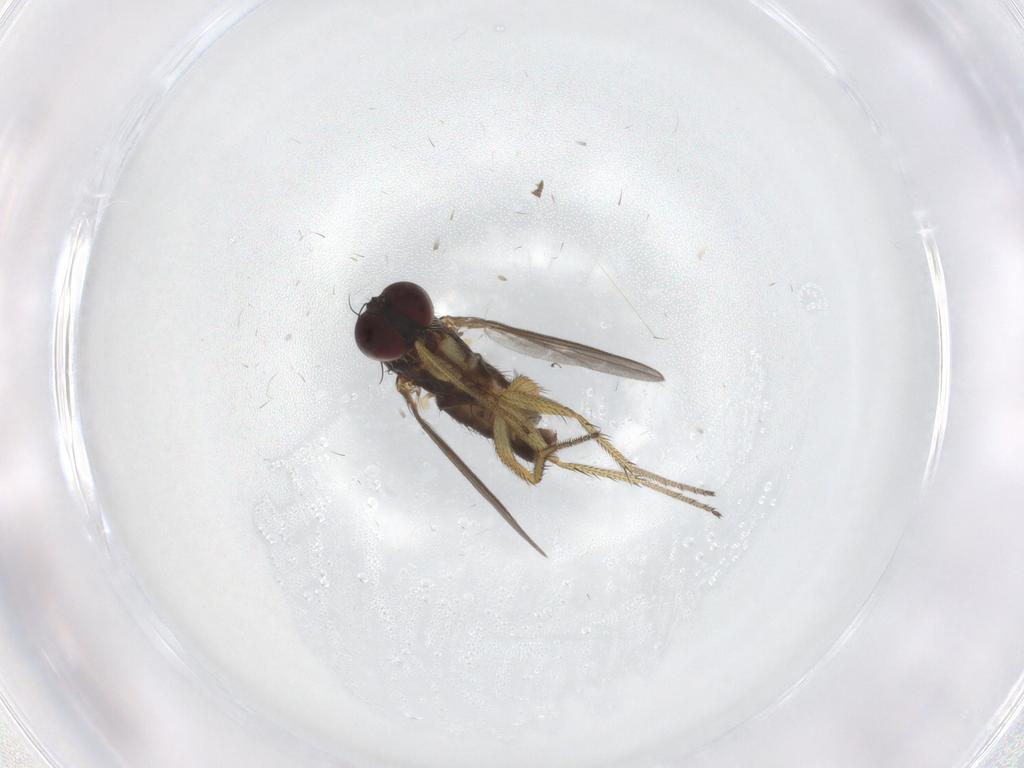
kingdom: Animalia
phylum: Arthropoda
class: Insecta
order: Diptera
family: Dolichopodidae
